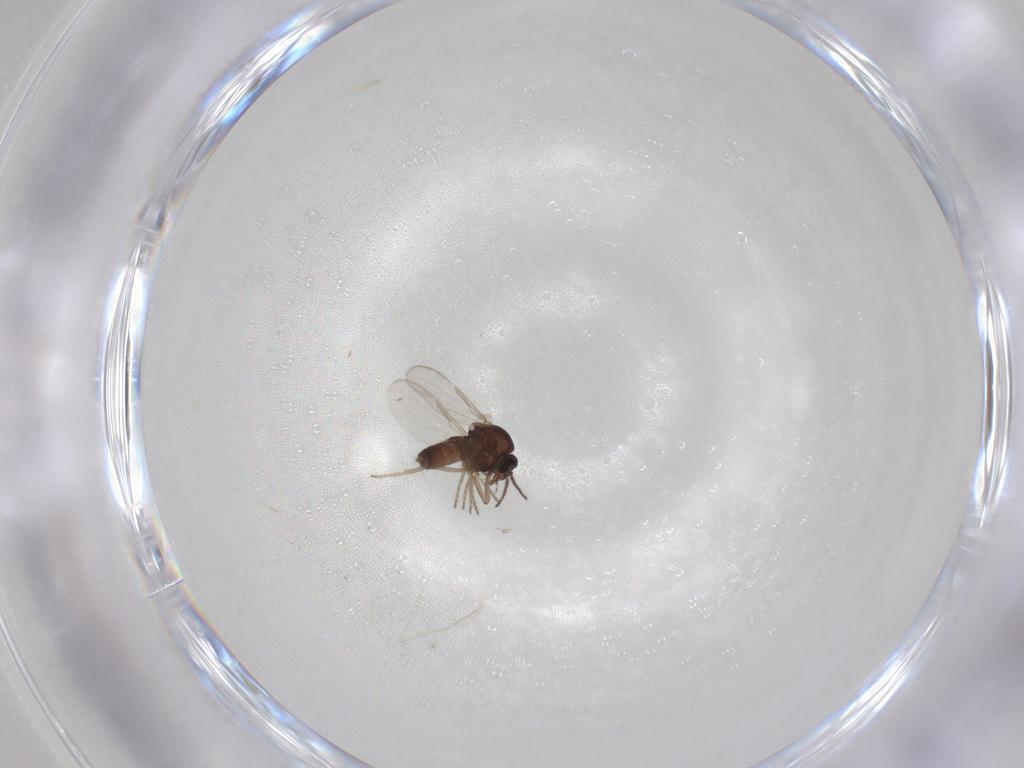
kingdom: Animalia
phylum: Arthropoda
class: Insecta
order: Diptera
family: Ceratopogonidae
